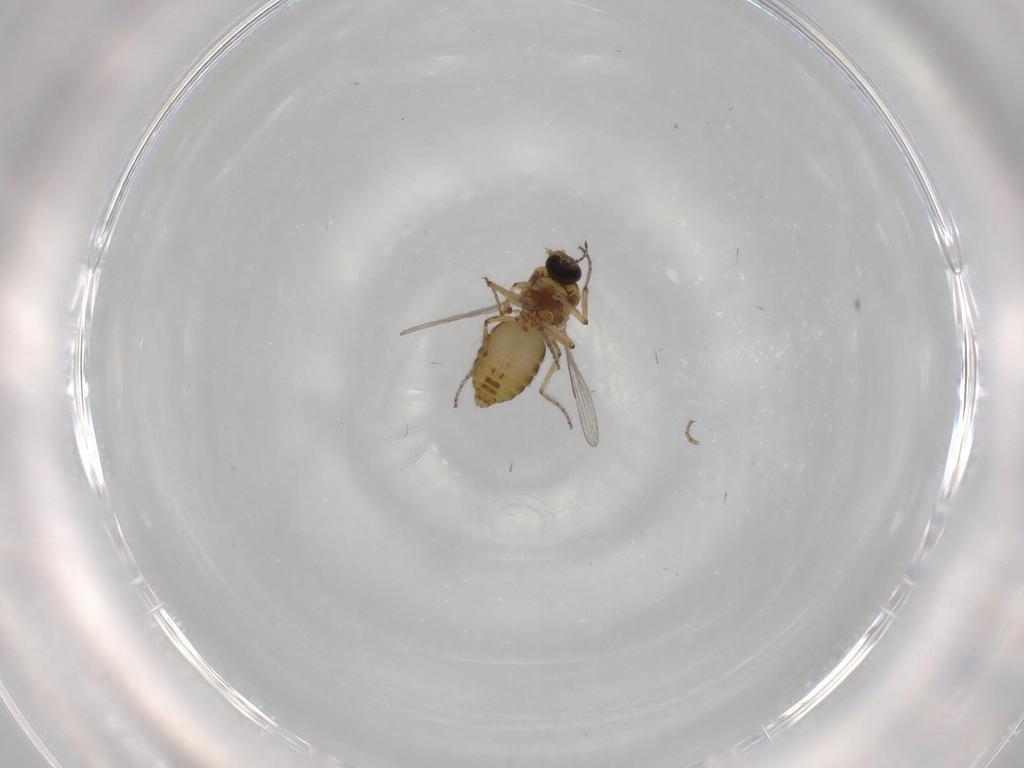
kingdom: Animalia
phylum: Arthropoda
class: Insecta
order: Diptera
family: Ceratopogonidae
